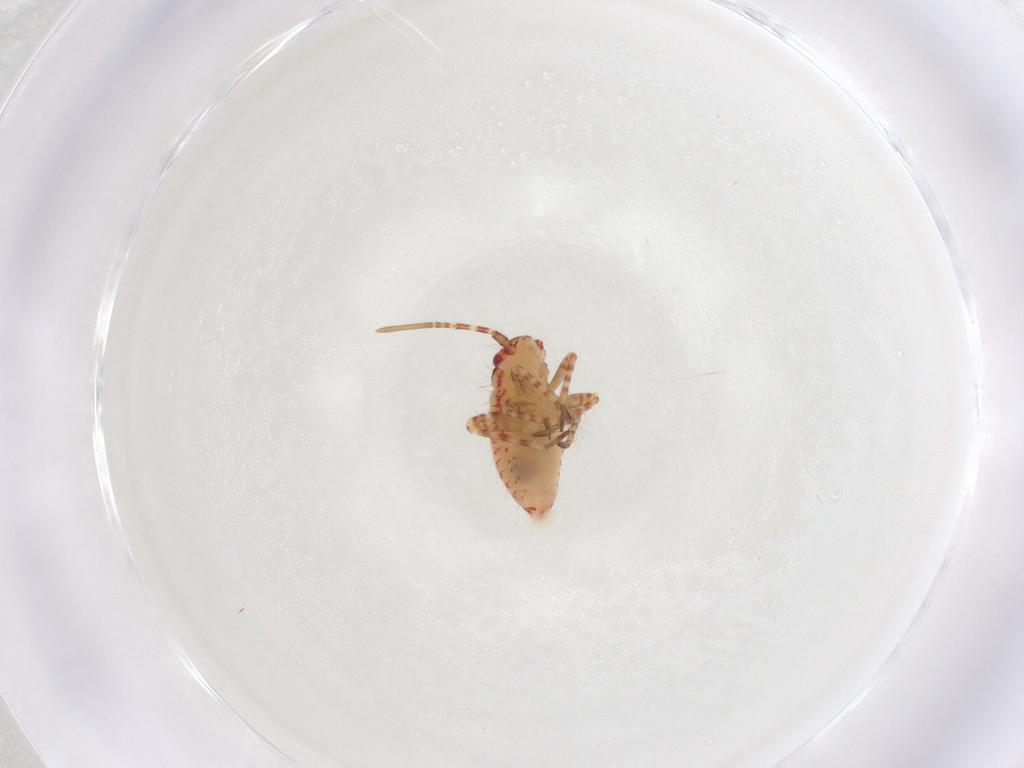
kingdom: Animalia
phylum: Arthropoda
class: Insecta
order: Hemiptera
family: Miridae
